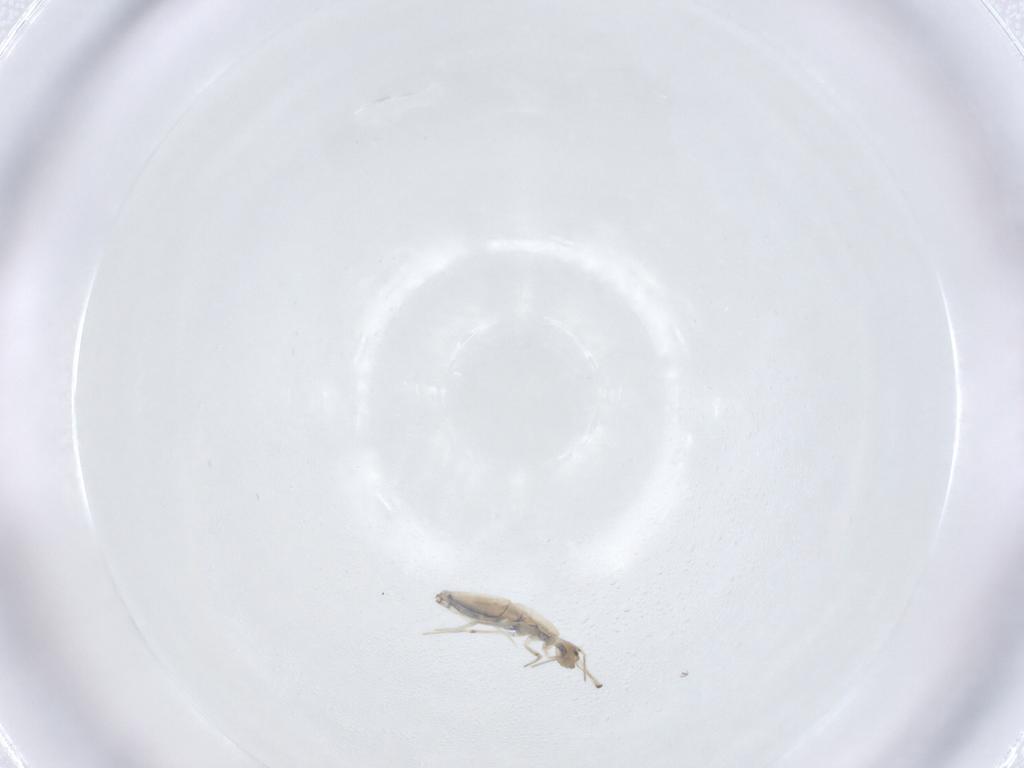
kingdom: Animalia
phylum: Arthropoda
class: Collembola
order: Entomobryomorpha
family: Paronellidae
